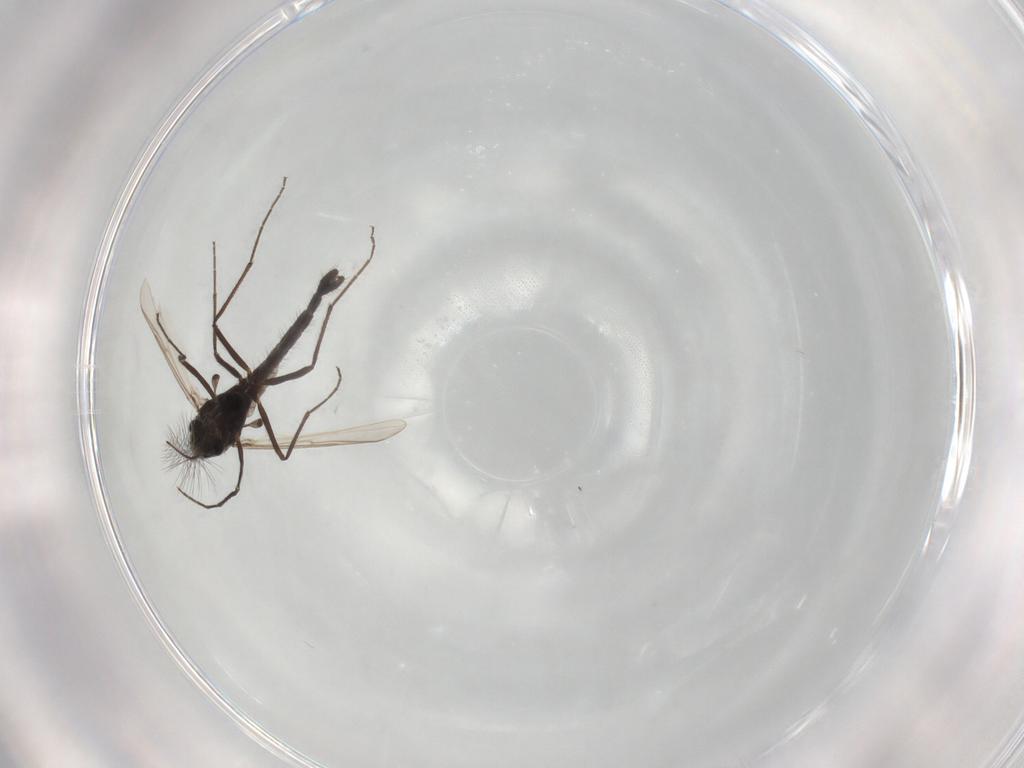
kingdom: Animalia
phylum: Arthropoda
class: Insecta
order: Diptera
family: Chironomidae
